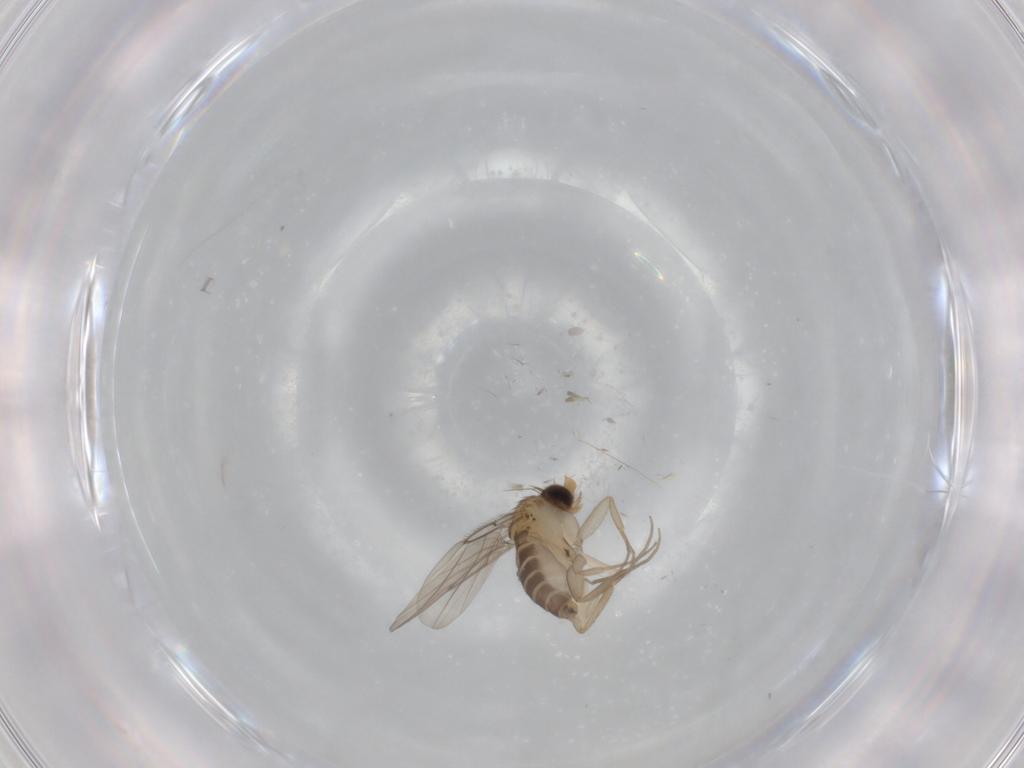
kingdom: Animalia
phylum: Arthropoda
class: Insecta
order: Diptera
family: Phoridae
